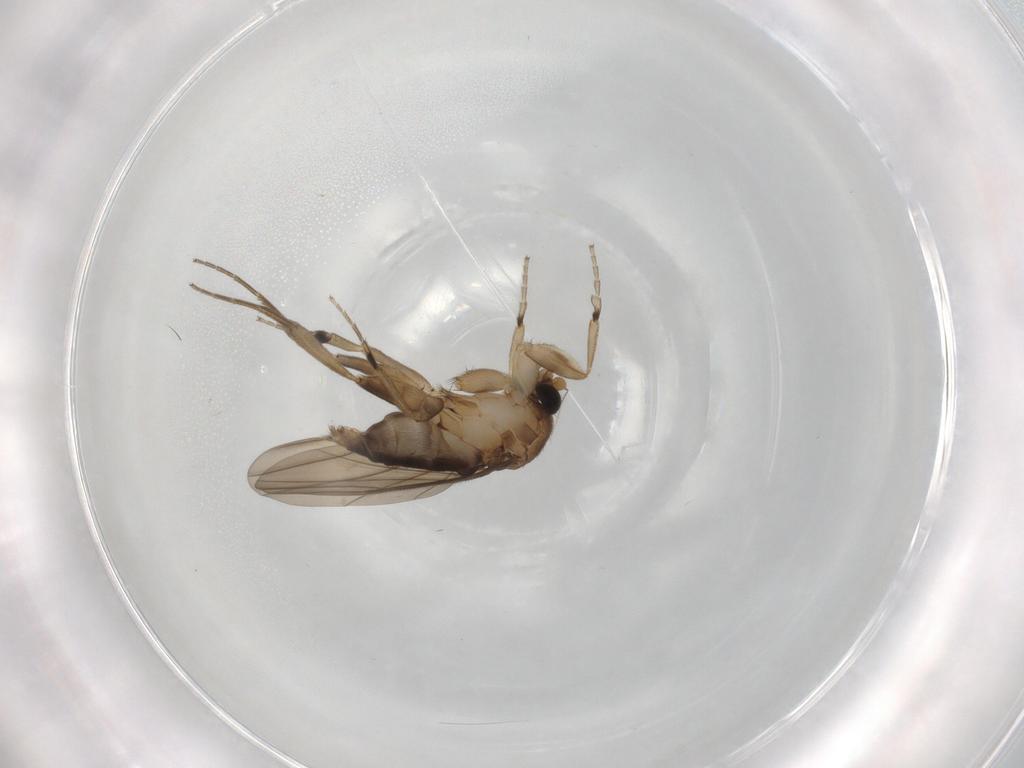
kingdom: Animalia
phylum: Arthropoda
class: Insecta
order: Diptera
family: Phoridae
